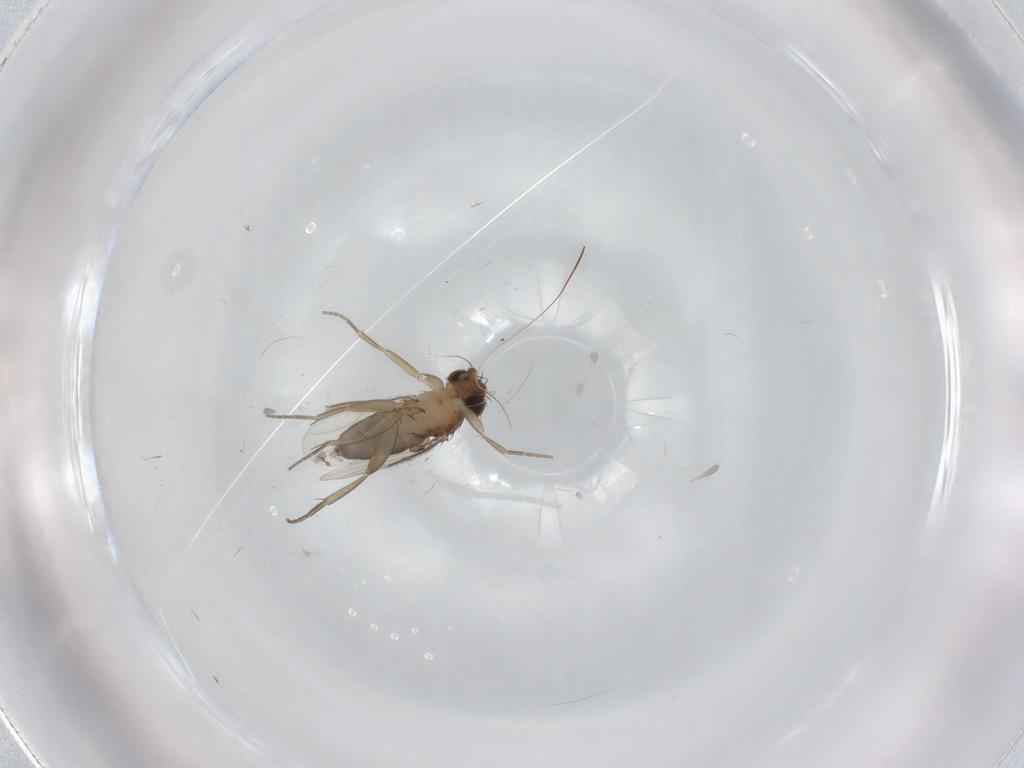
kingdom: Animalia
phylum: Arthropoda
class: Insecta
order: Diptera
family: Phoridae
